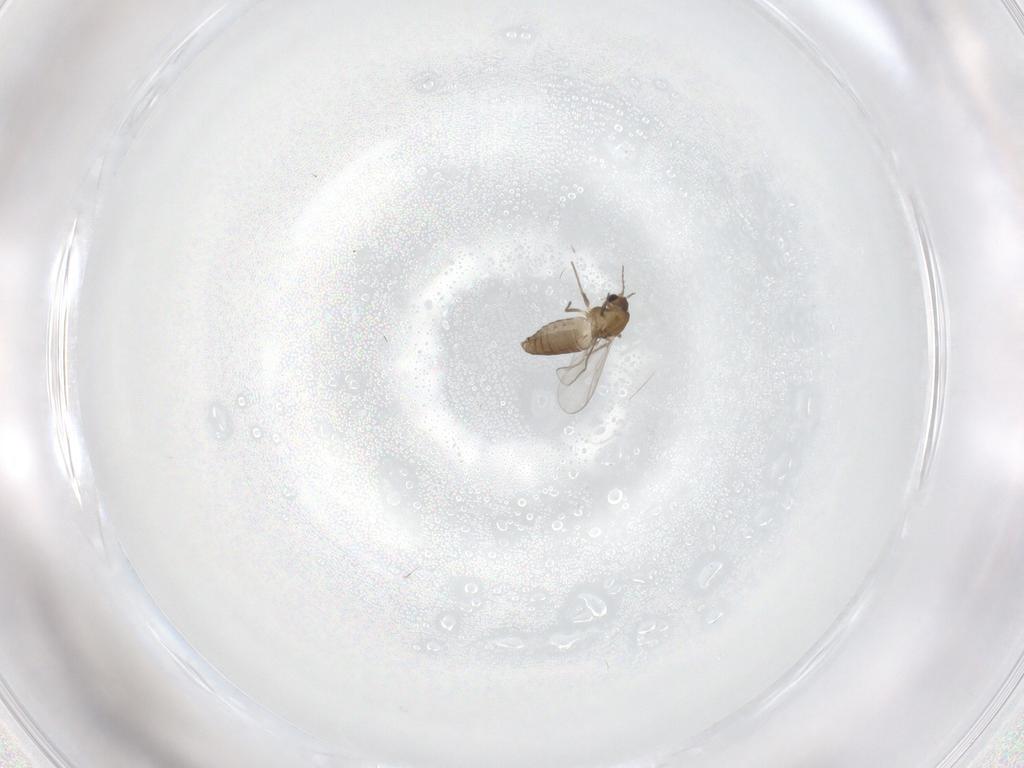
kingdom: Animalia
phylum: Arthropoda
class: Insecta
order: Diptera
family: Chironomidae
